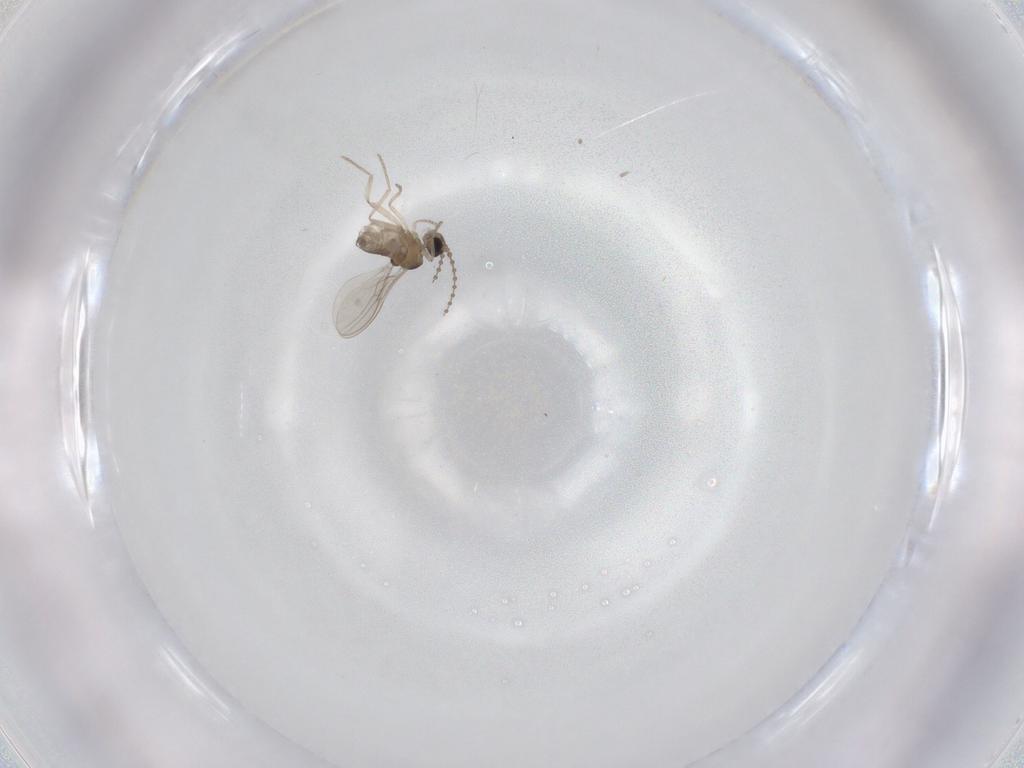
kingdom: Animalia
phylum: Arthropoda
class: Insecta
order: Diptera
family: Cecidomyiidae
